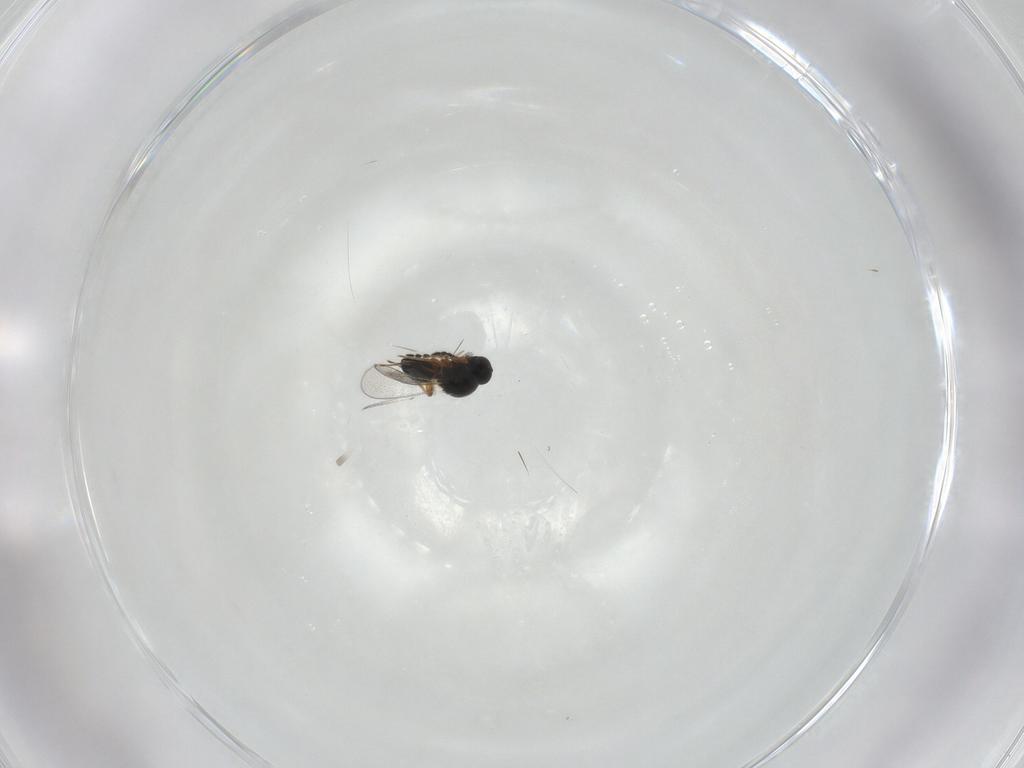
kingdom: Animalia
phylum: Arthropoda
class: Insecta
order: Hymenoptera
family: Platygastridae
